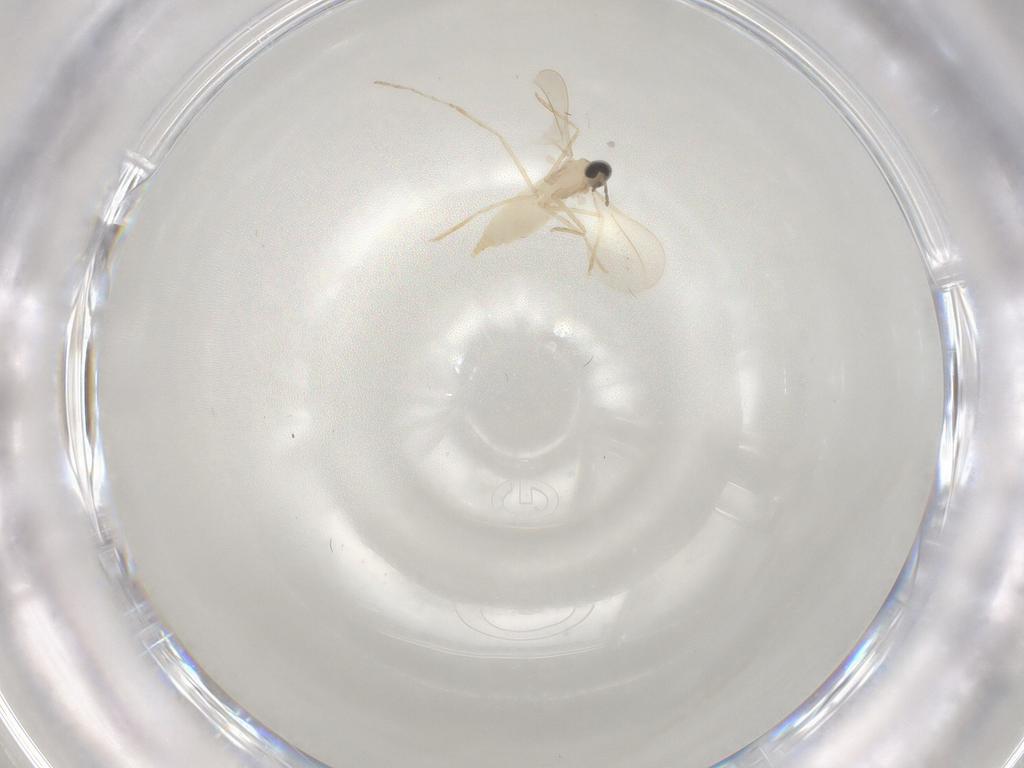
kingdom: Animalia
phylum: Arthropoda
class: Insecta
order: Diptera
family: Cecidomyiidae
